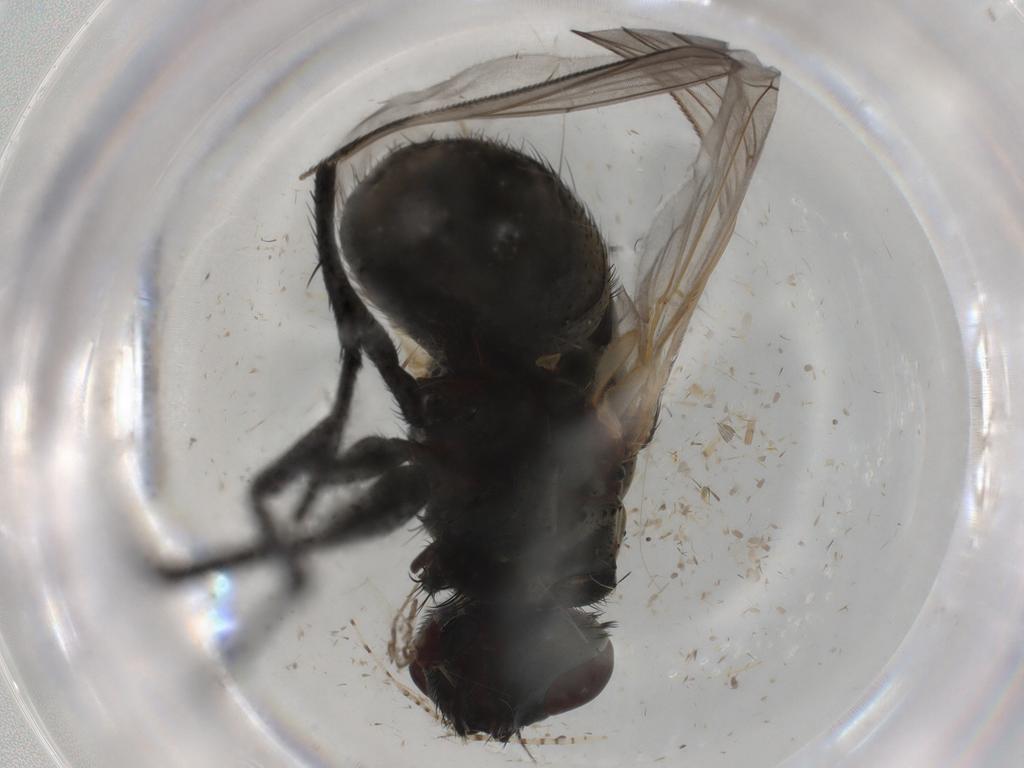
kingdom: Animalia
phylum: Arthropoda
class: Insecta
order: Diptera
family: Muscidae
